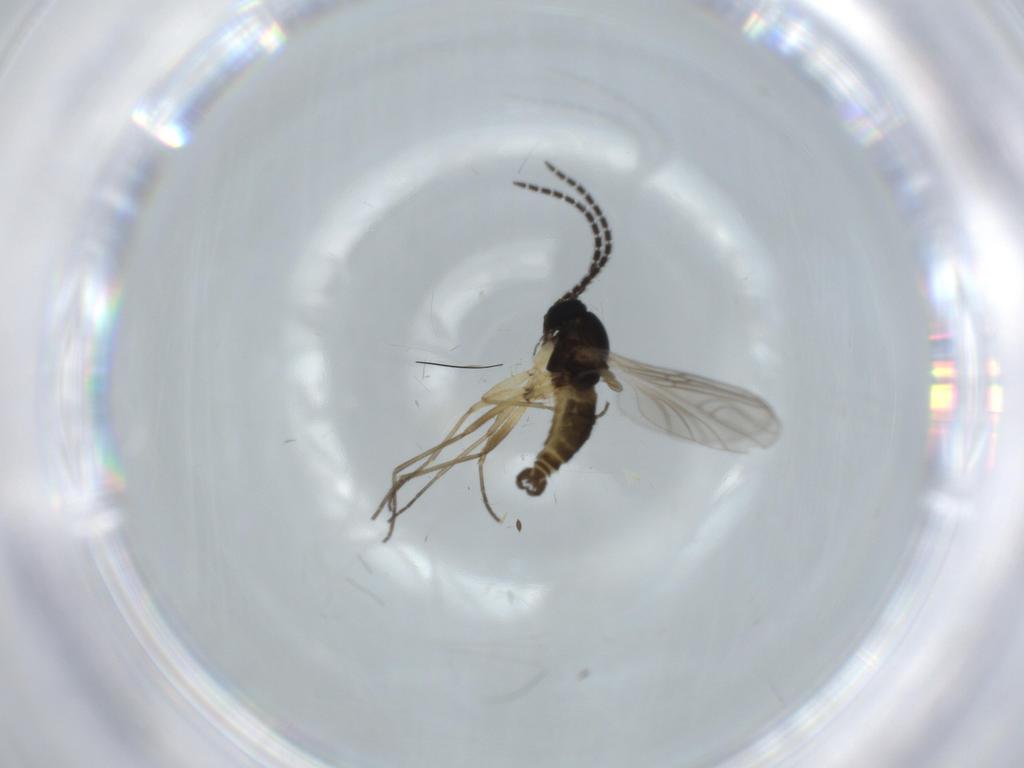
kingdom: Animalia
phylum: Arthropoda
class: Insecta
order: Diptera
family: Sciaridae
